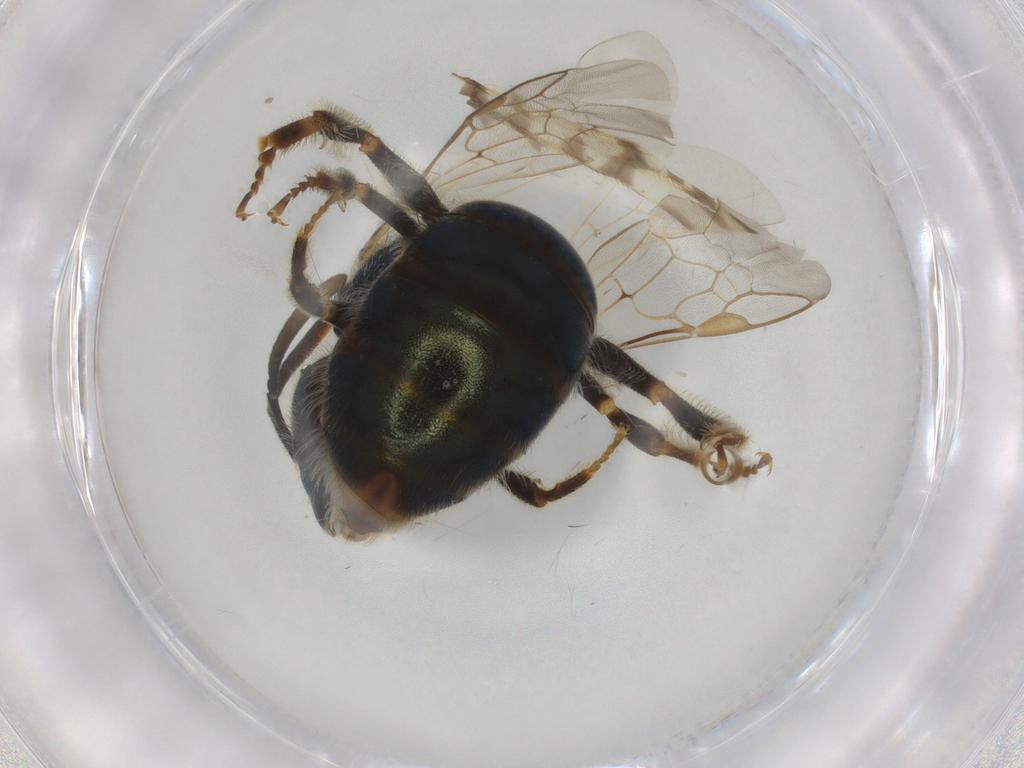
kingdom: Animalia
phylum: Arthropoda
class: Insecta
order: Hymenoptera
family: Halictidae
